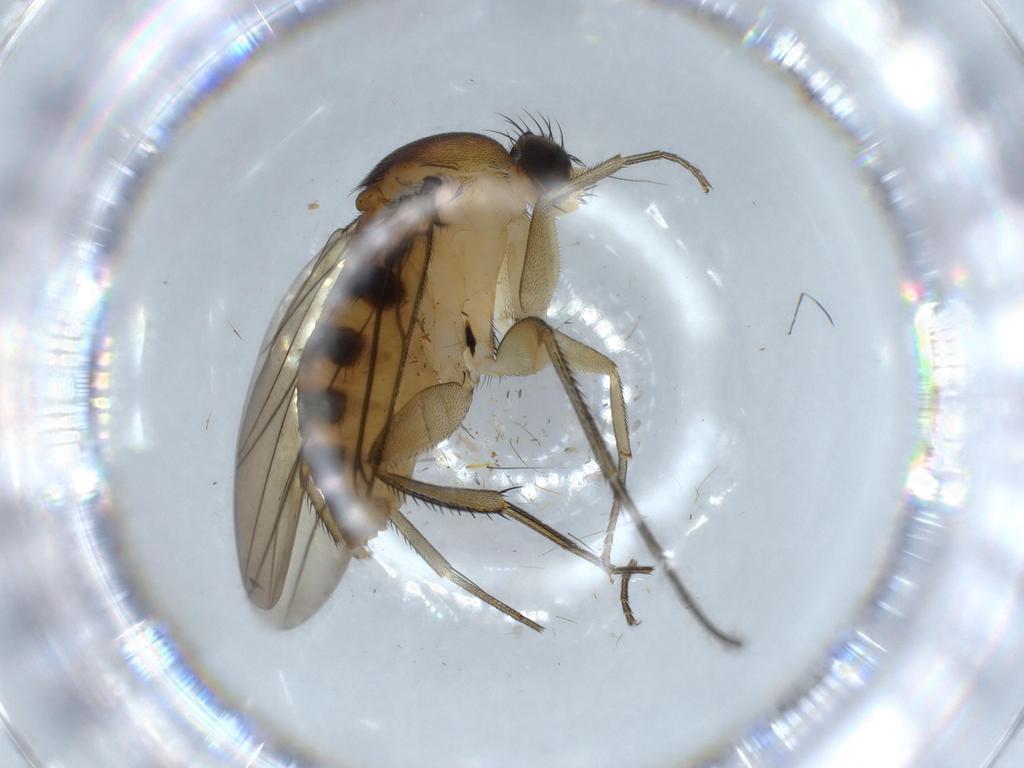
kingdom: Animalia
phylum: Arthropoda
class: Insecta
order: Diptera
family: Phoridae
